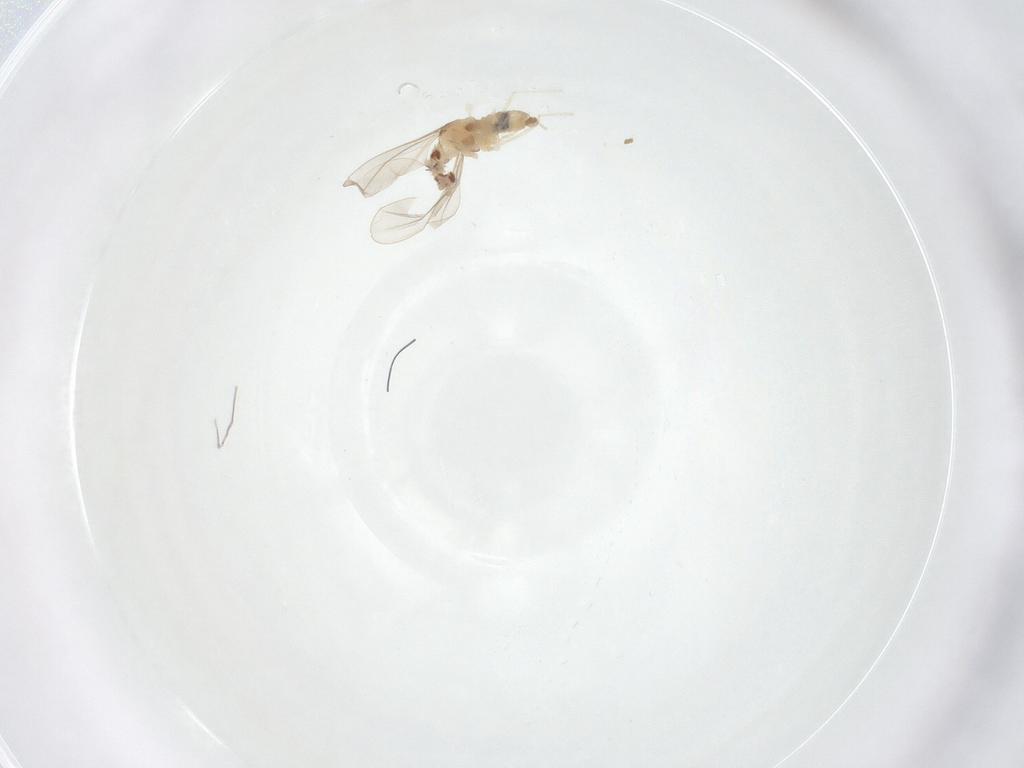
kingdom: Animalia
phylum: Arthropoda
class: Insecta
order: Diptera
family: Cecidomyiidae
